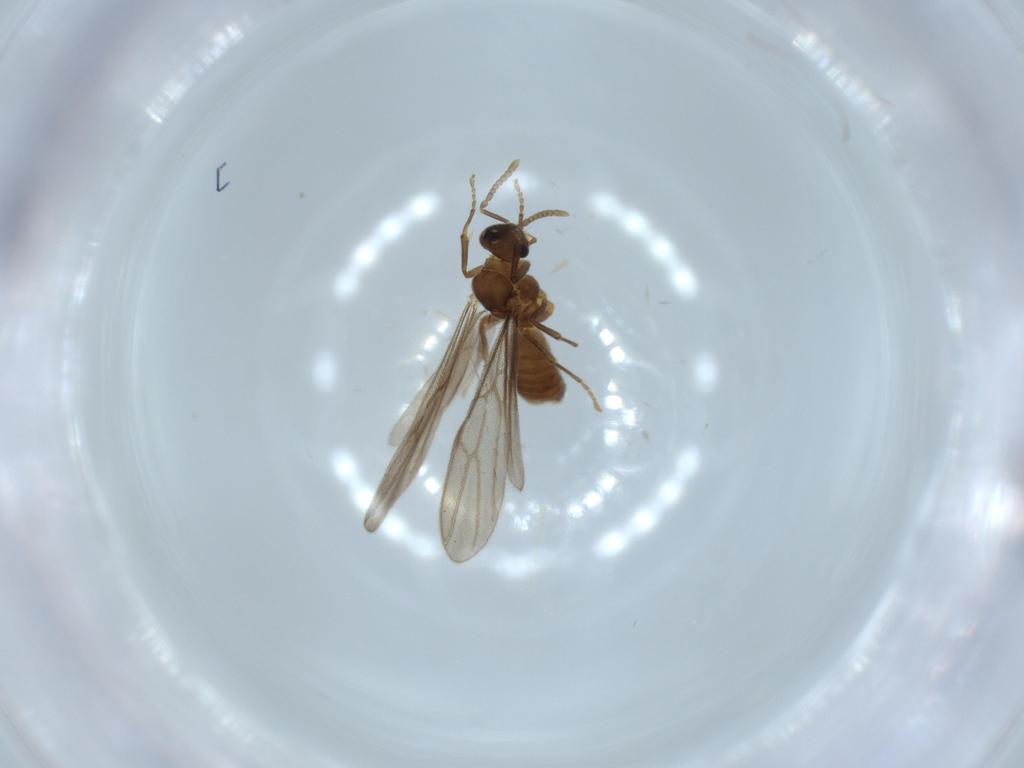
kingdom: Animalia
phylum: Arthropoda
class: Insecta
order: Hymenoptera
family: Formicidae
